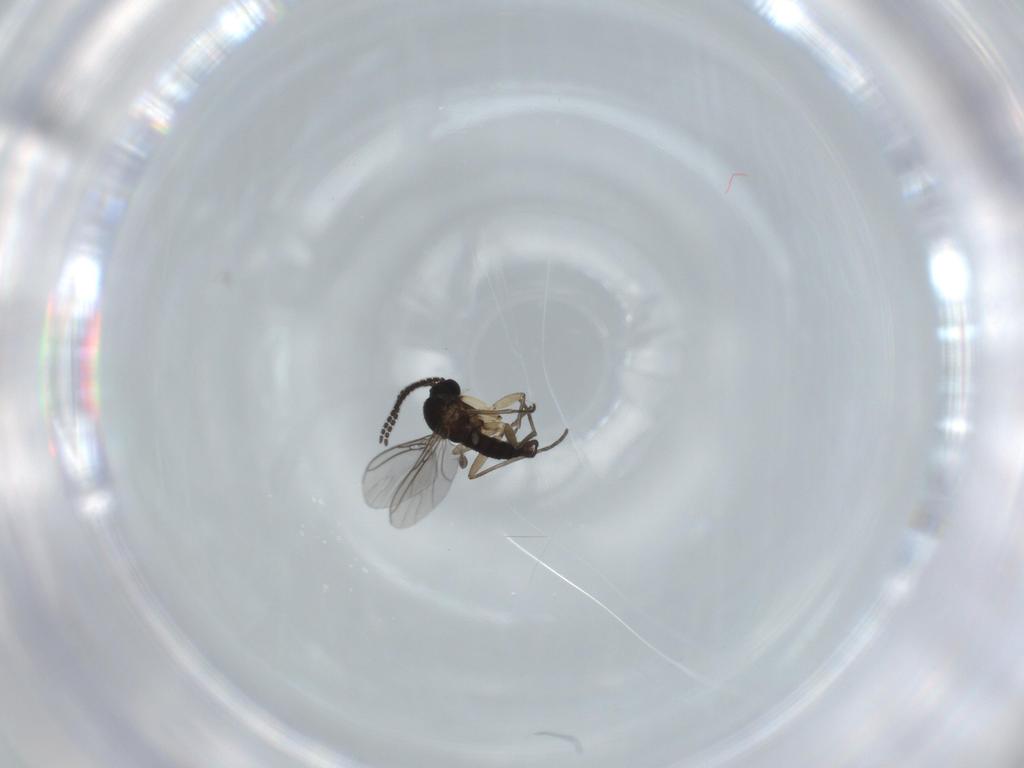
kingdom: Animalia
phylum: Arthropoda
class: Insecta
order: Diptera
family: Sciaridae
